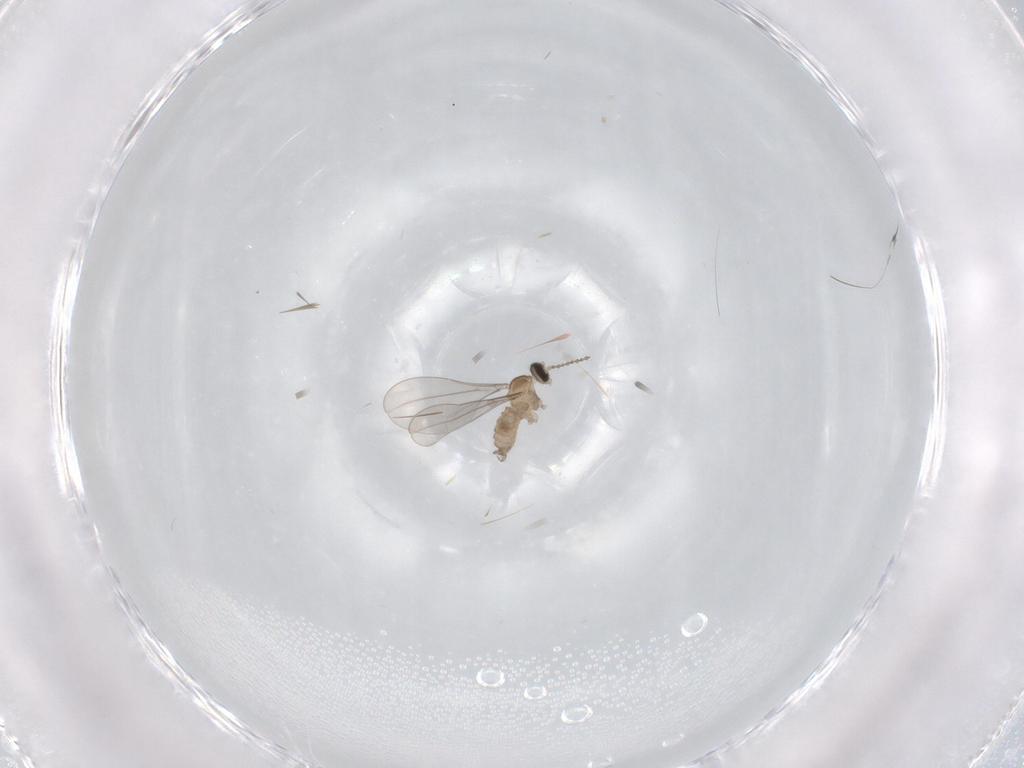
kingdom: Animalia
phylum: Arthropoda
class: Insecta
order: Diptera
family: Cecidomyiidae
